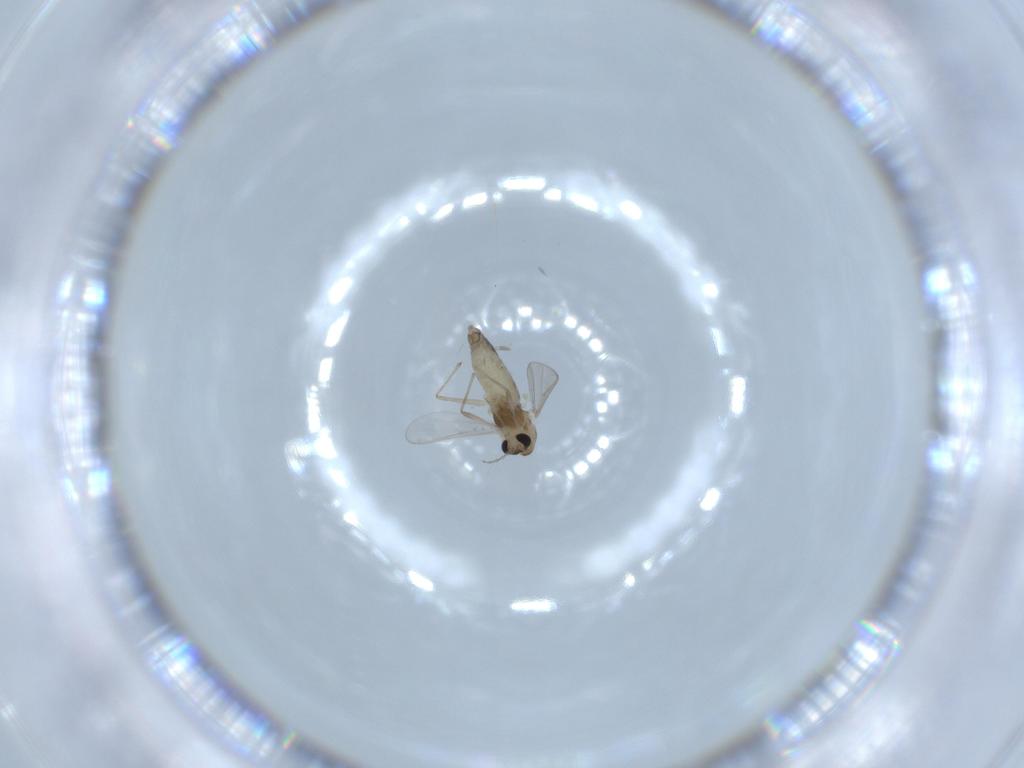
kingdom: Animalia
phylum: Arthropoda
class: Insecta
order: Diptera
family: Chironomidae
